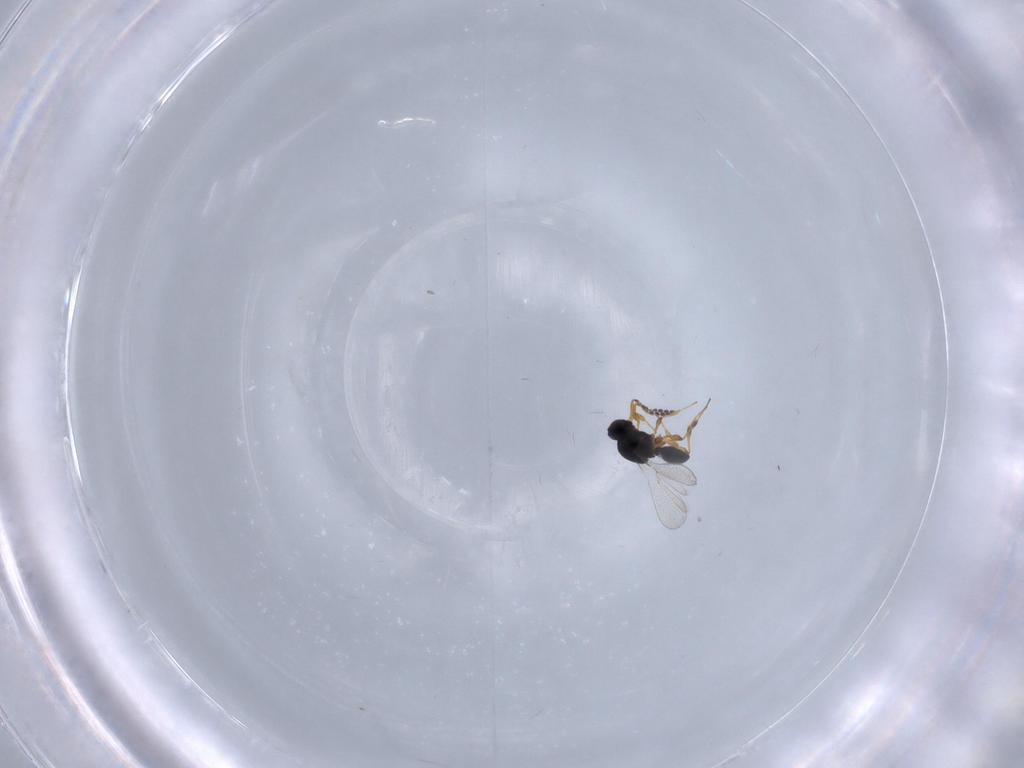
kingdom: Animalia
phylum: Arthropoda
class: Insecta
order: Hymenoptera
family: Platygastridae
